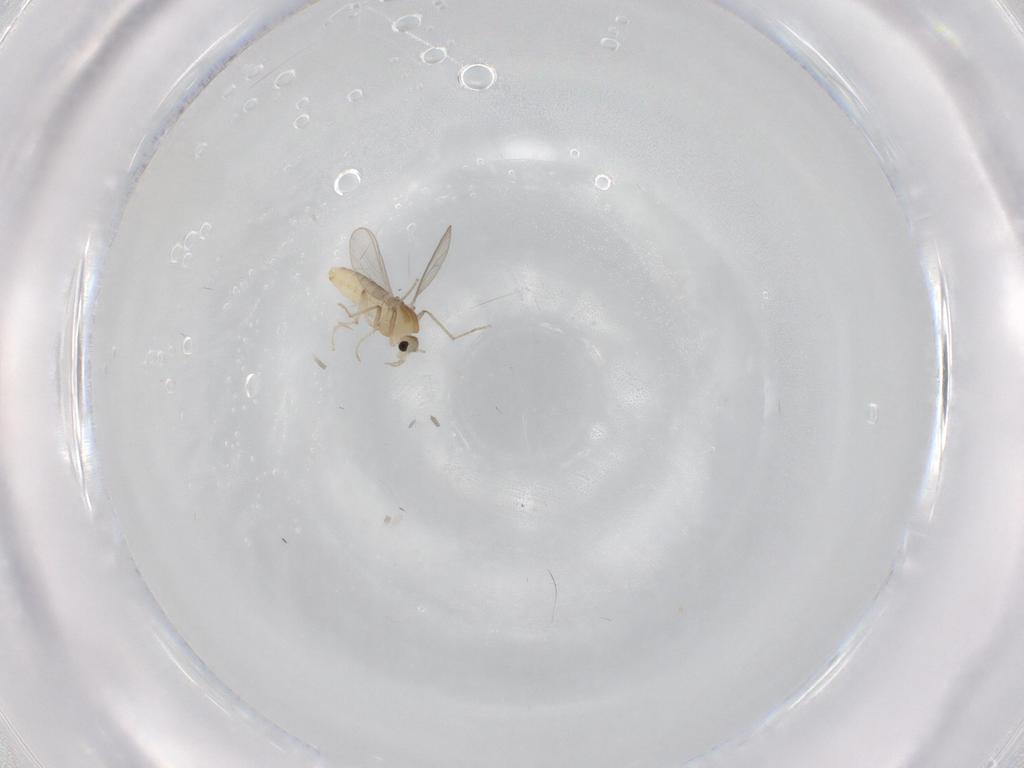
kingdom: Animalia
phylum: Arthropoda
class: Insecta
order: Diptera
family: Chironomidae
